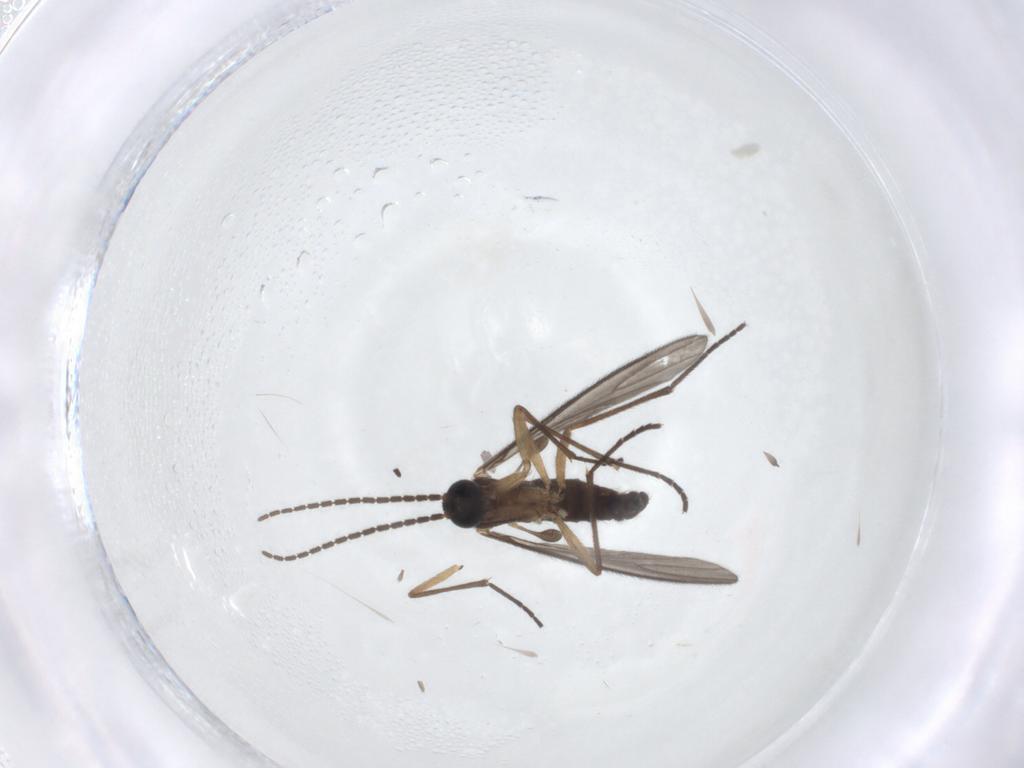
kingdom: Animalia
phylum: Arthropoda
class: Insecta
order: Diptera
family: Sciaridae
